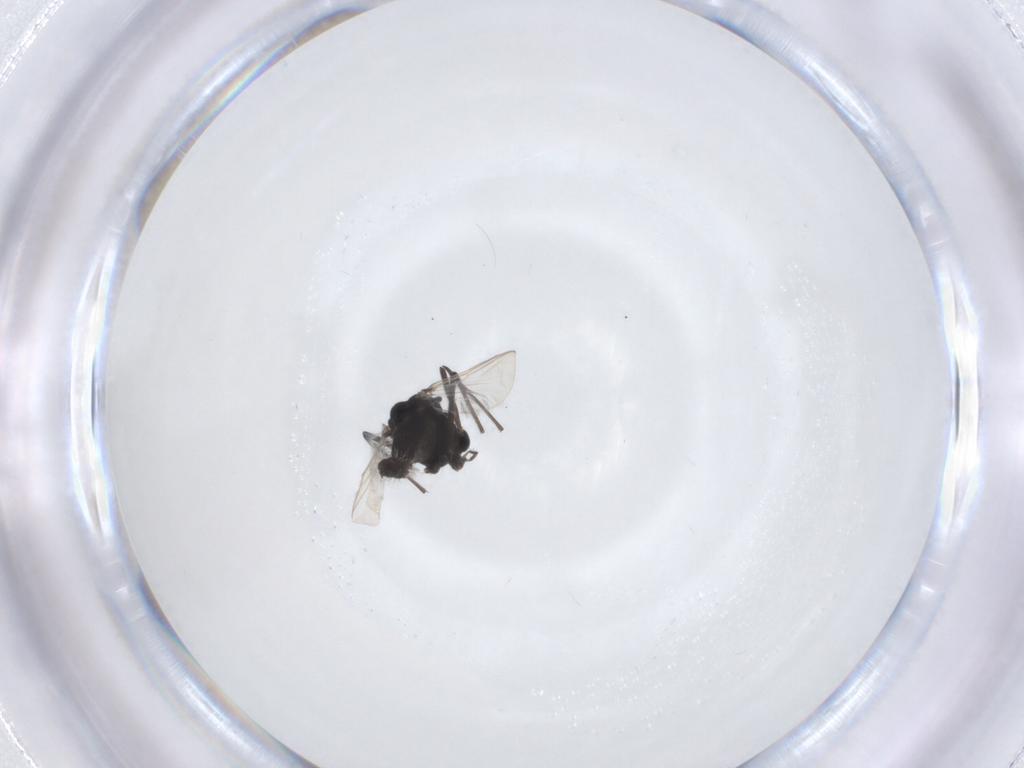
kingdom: Animalia
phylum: Arthropoda
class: Insecta
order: Diptera
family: Chironomidae
